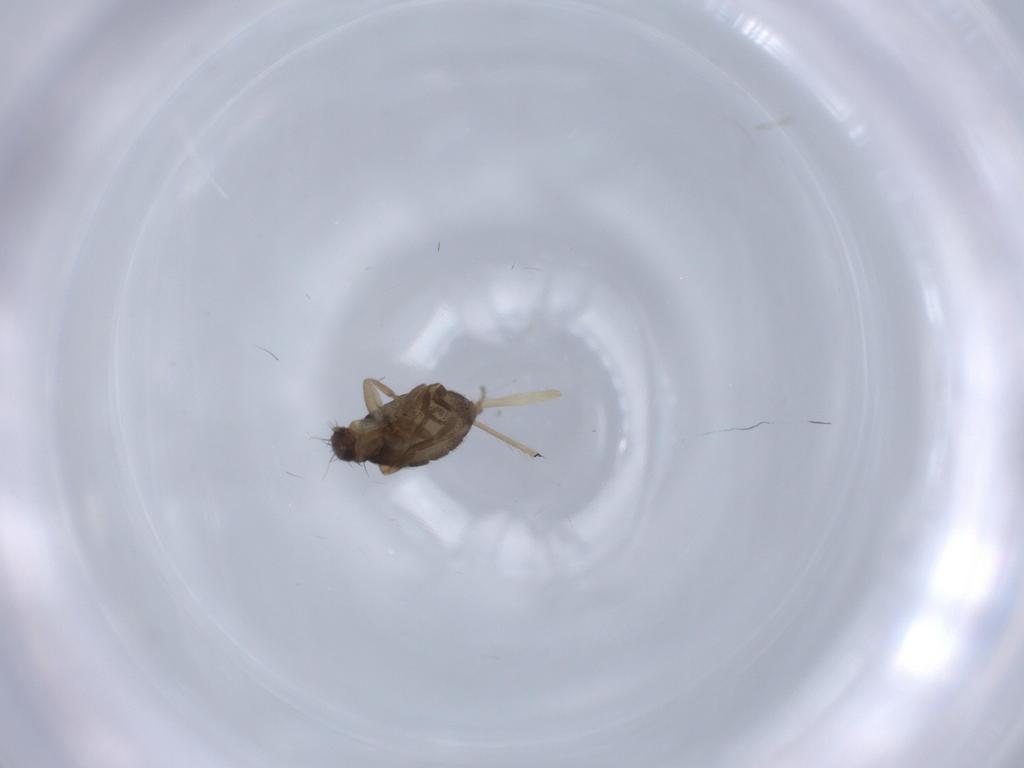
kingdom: Animalia
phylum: Arthropoda
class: Insecta
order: Diptera
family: Phoridae
